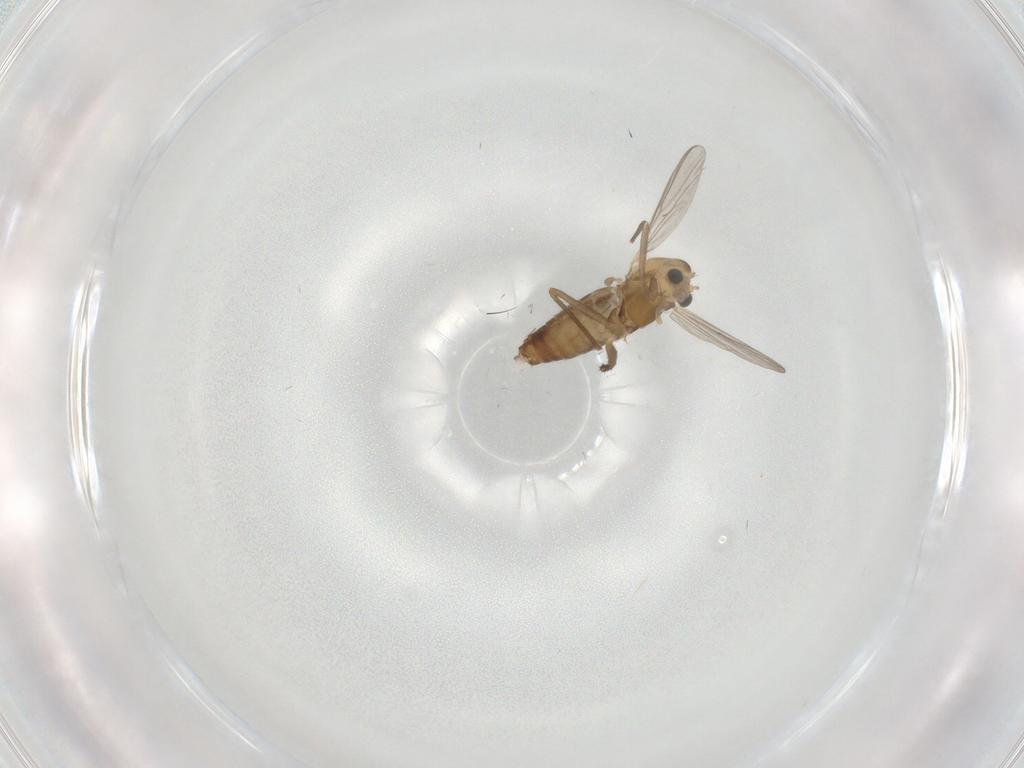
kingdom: Animalia
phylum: Arthropoda
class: Insecta
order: Diptera
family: Chironomidae
